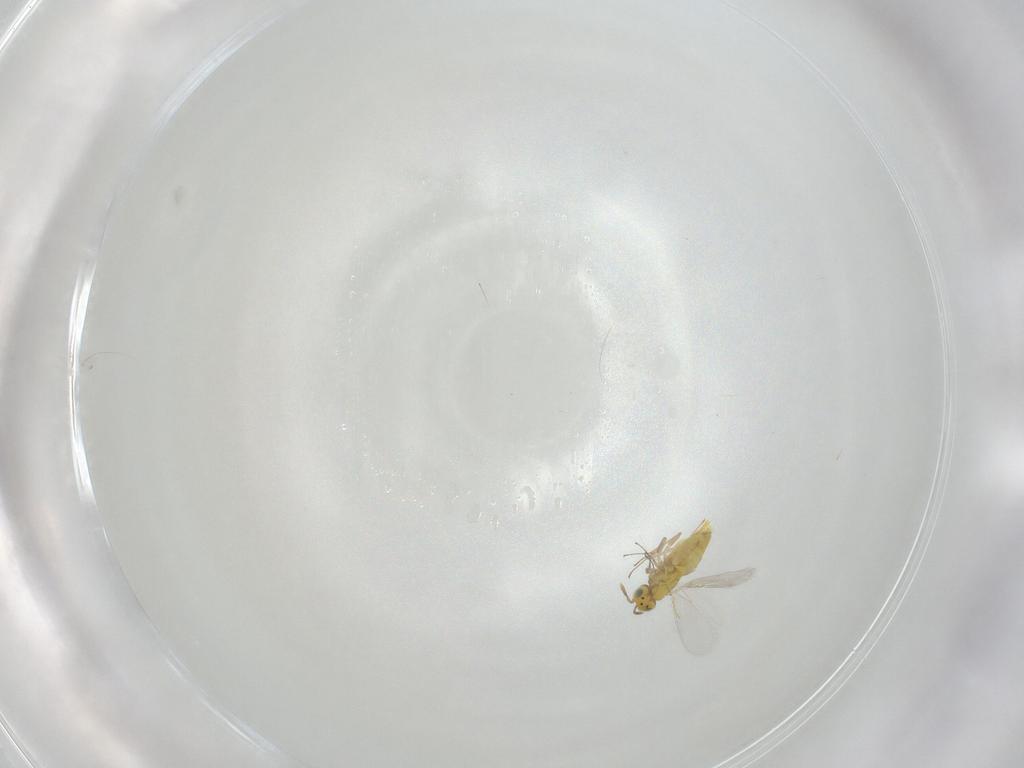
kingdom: Animalia
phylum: Arthropoda
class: Insecta
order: Hymenoptera
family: Aphelinidae
